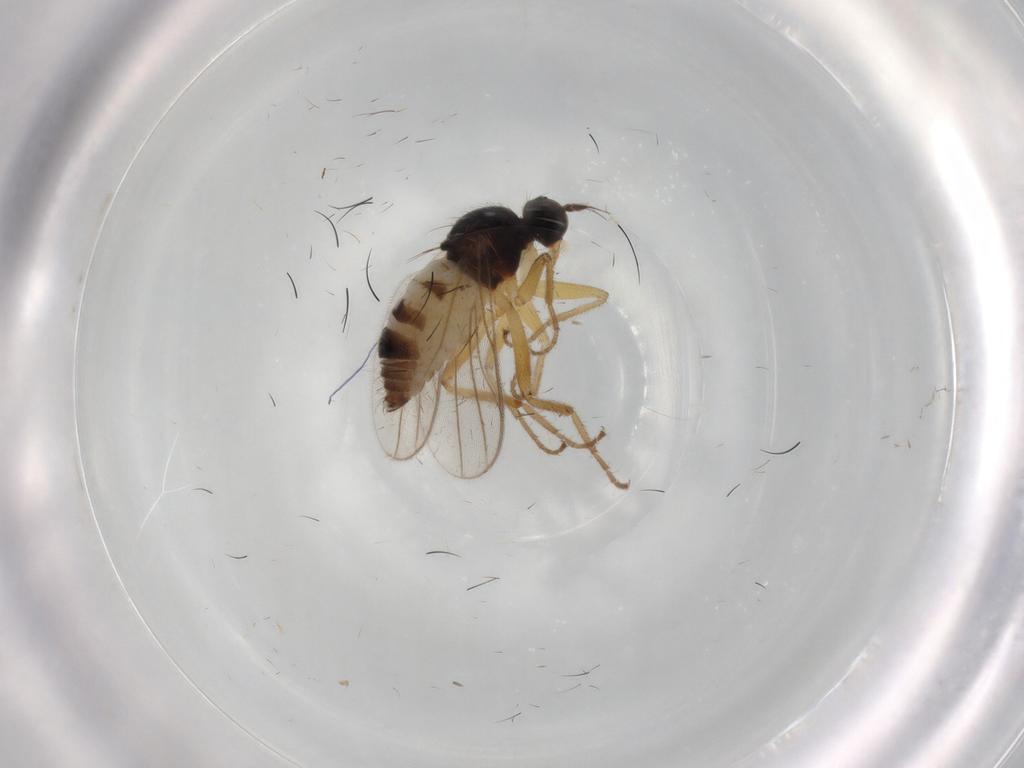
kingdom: Animalia
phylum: Arthropoda
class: Insecta
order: Diptera
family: Hybotidae
